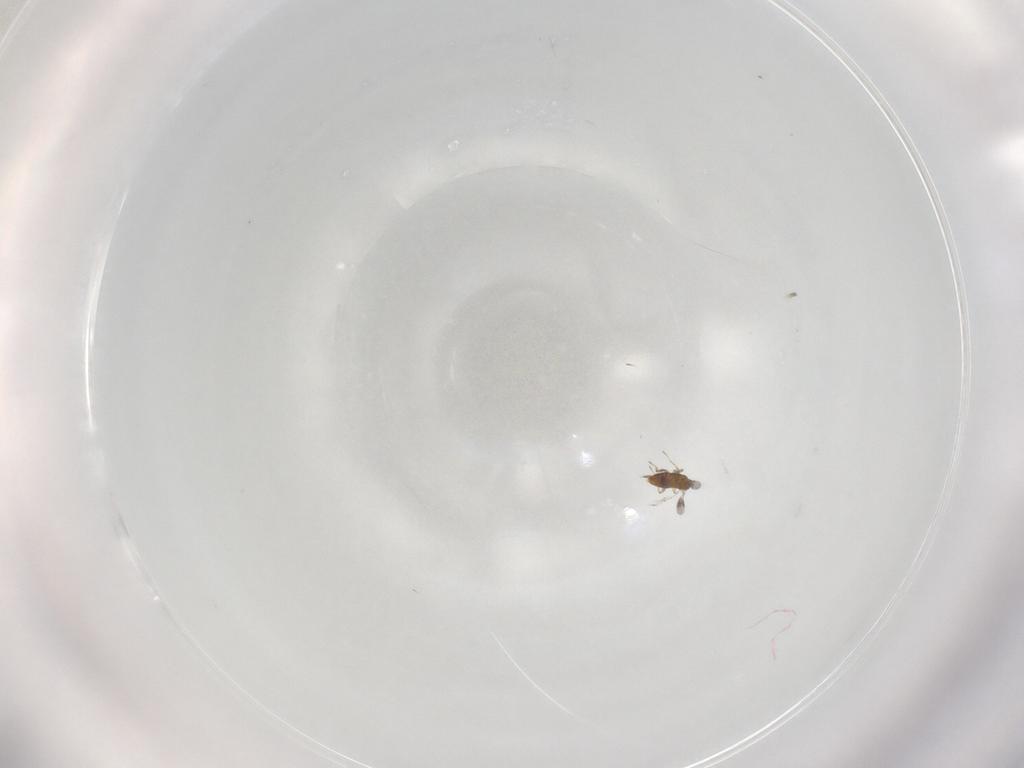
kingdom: Animalia
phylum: Arthropoda
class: Insecta
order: Hymenoptera
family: Trichogrammatidae
